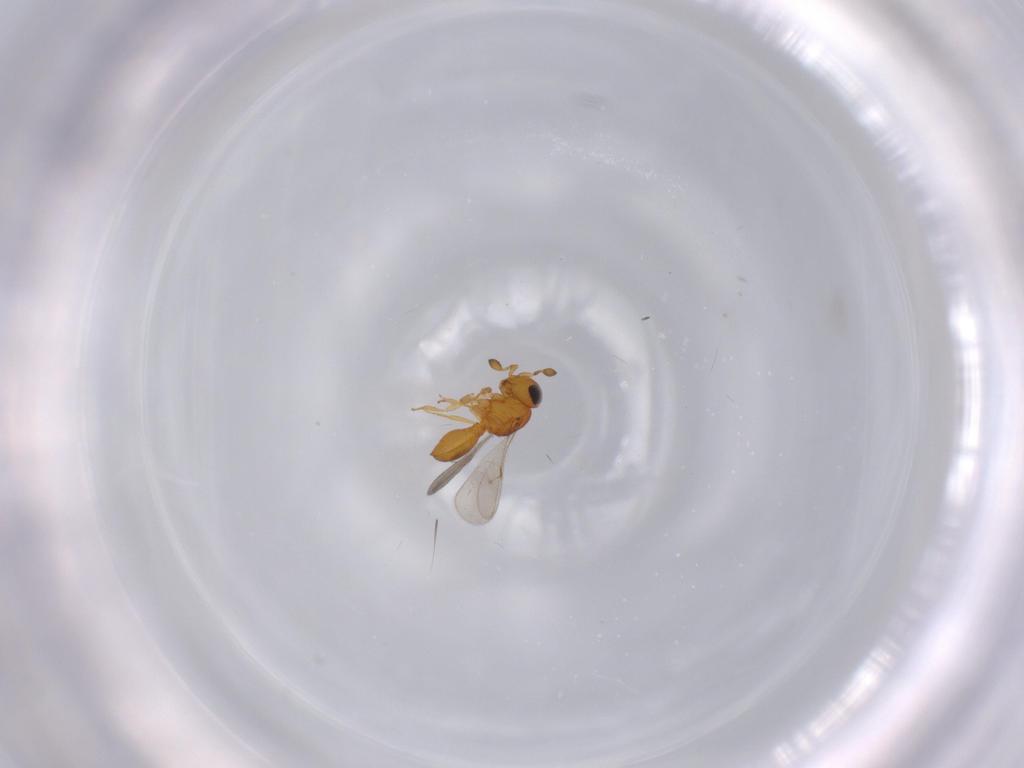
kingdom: Animalia
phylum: Arthropoda
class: Insecta
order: Hymenoptera
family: Scelionidae
